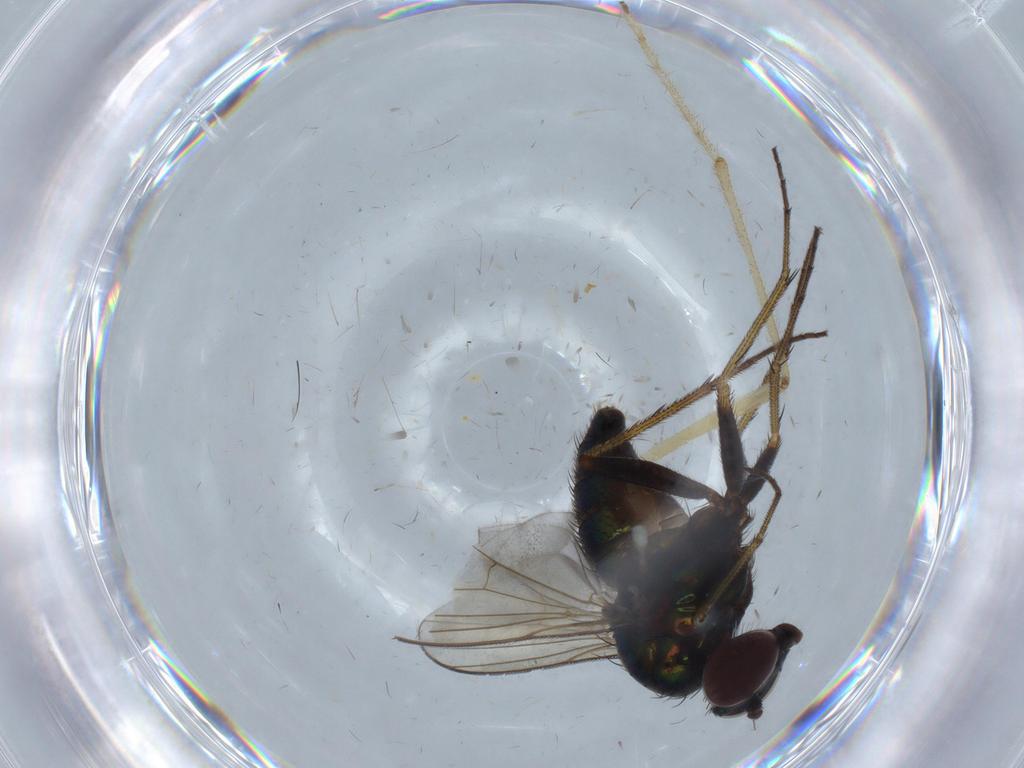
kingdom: Animalia
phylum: Arthropoda
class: Insecta
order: Diptera
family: Dolichopodidae
